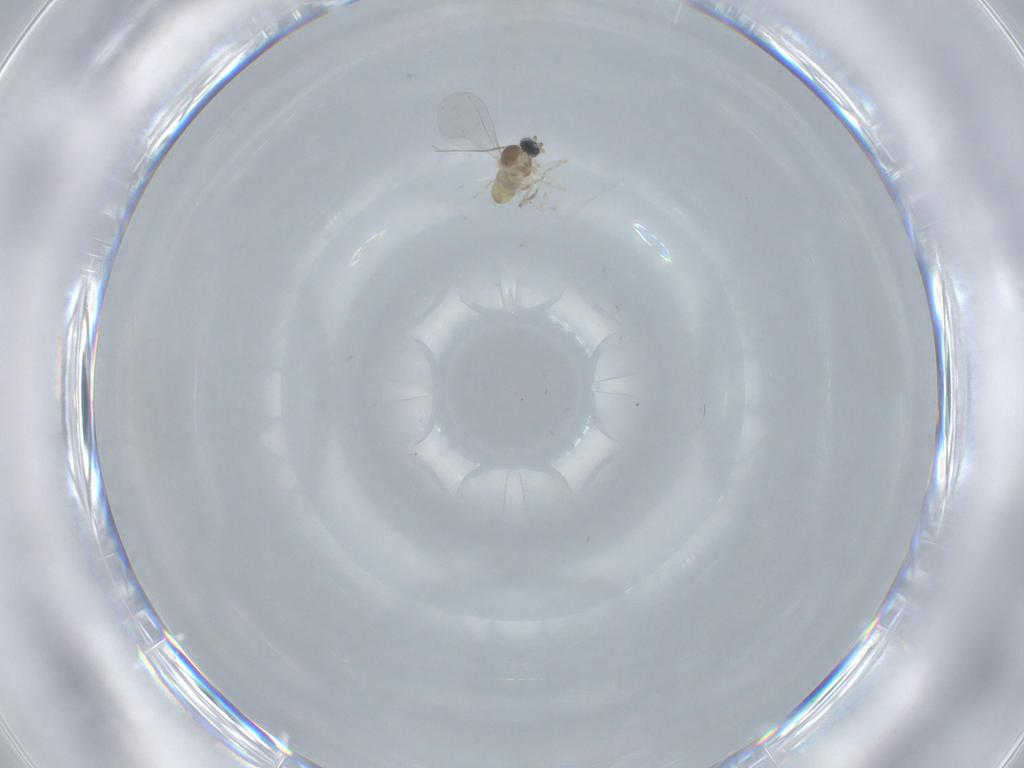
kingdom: Animalia
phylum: Arthropoda
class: Insecta
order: Diptera
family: Cecidomyiidae
